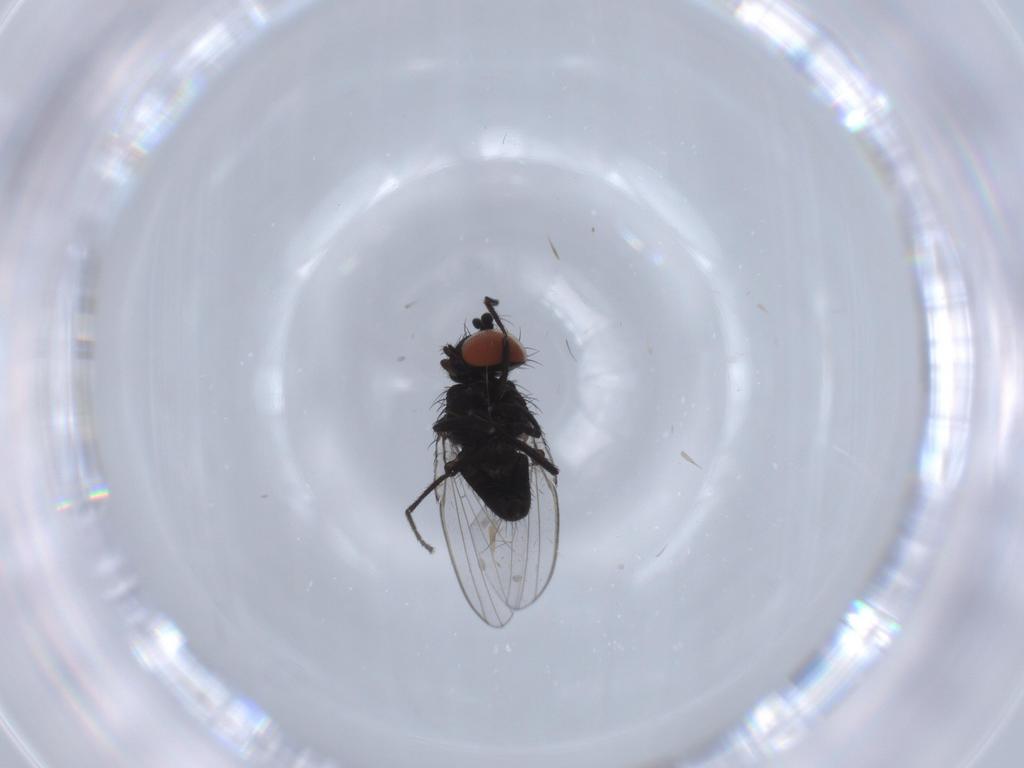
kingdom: Animalia
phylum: Arthropoda
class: Insecta
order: Diptera
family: Milichiidae
